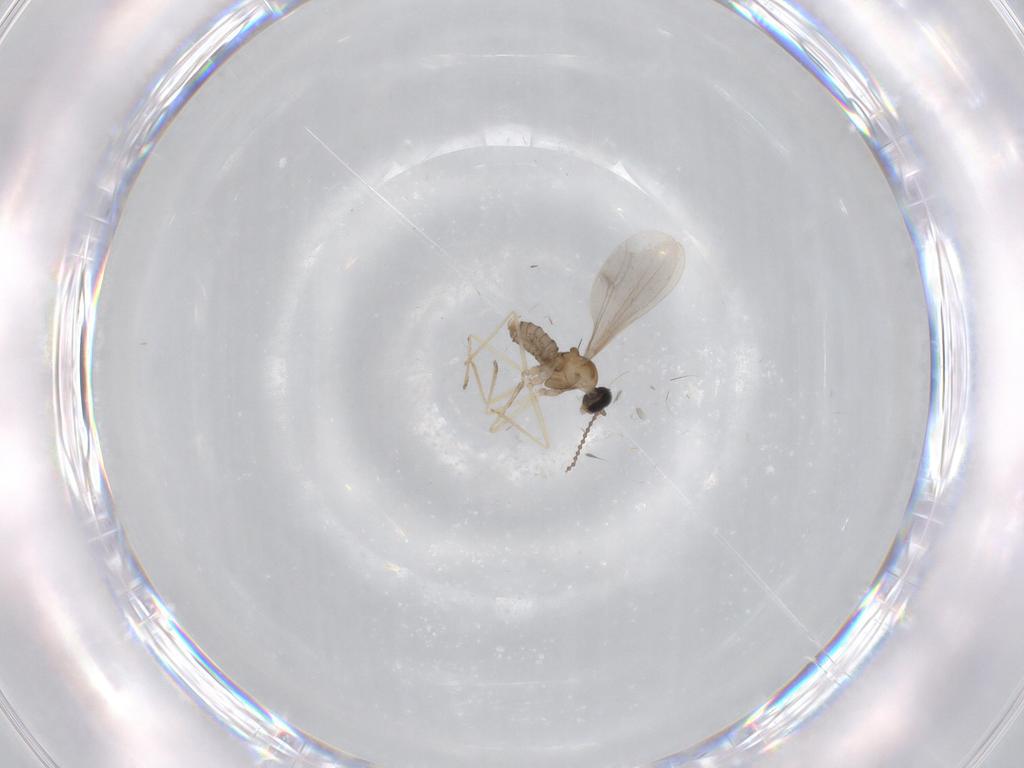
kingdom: Animalia
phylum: Arthropoda
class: Insecta
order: Diptera
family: Cecidomyiidae
